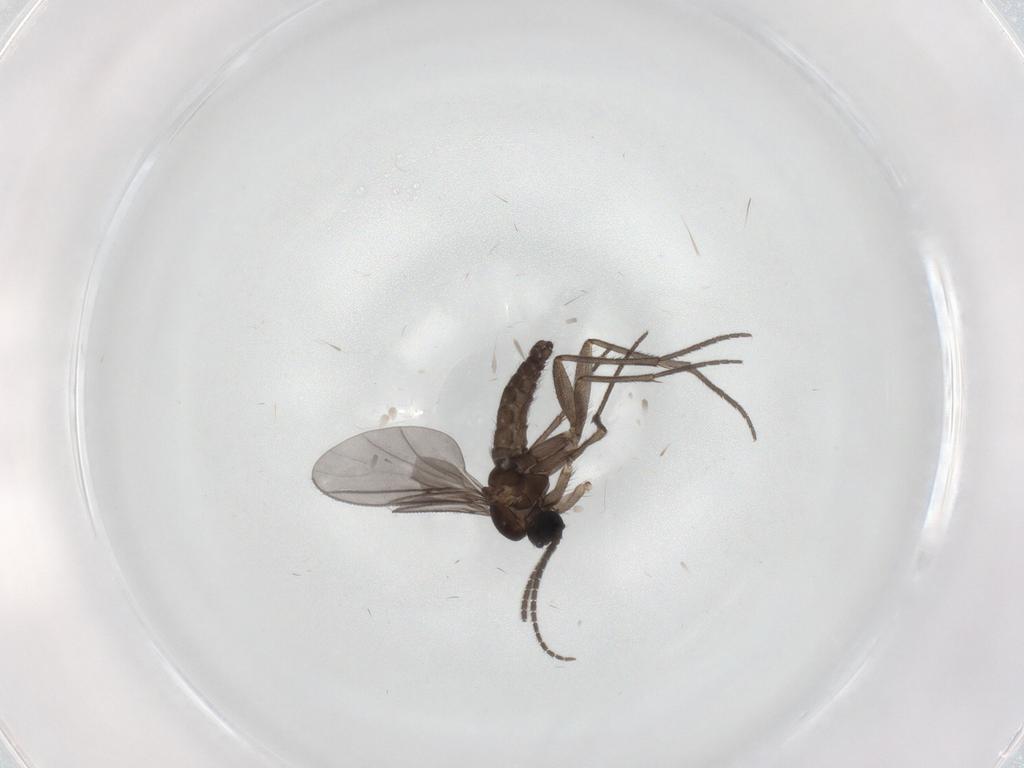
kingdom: Animalia
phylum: Arthropoda
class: Insecta
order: Diptera
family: Sciaridae
